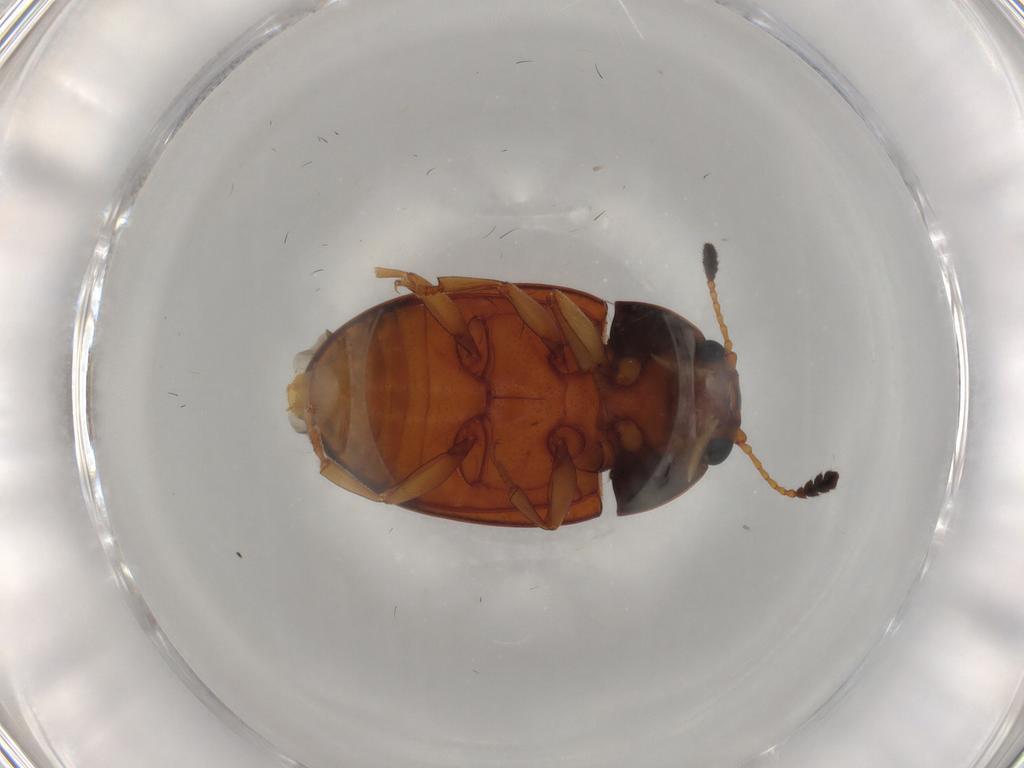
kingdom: Animalia
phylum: Arthropoda
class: Insecta
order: Coleoptera
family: Erotylidae
